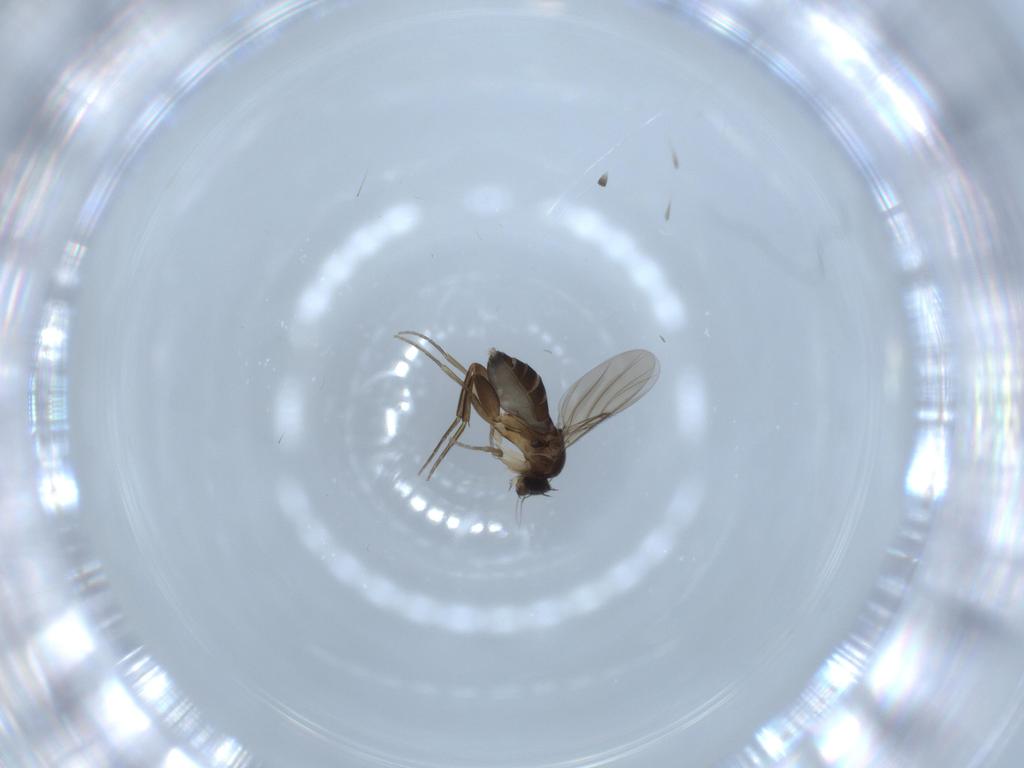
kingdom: Animalia
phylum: Arthropoda
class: Insecta
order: Diptera
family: Phoridae
